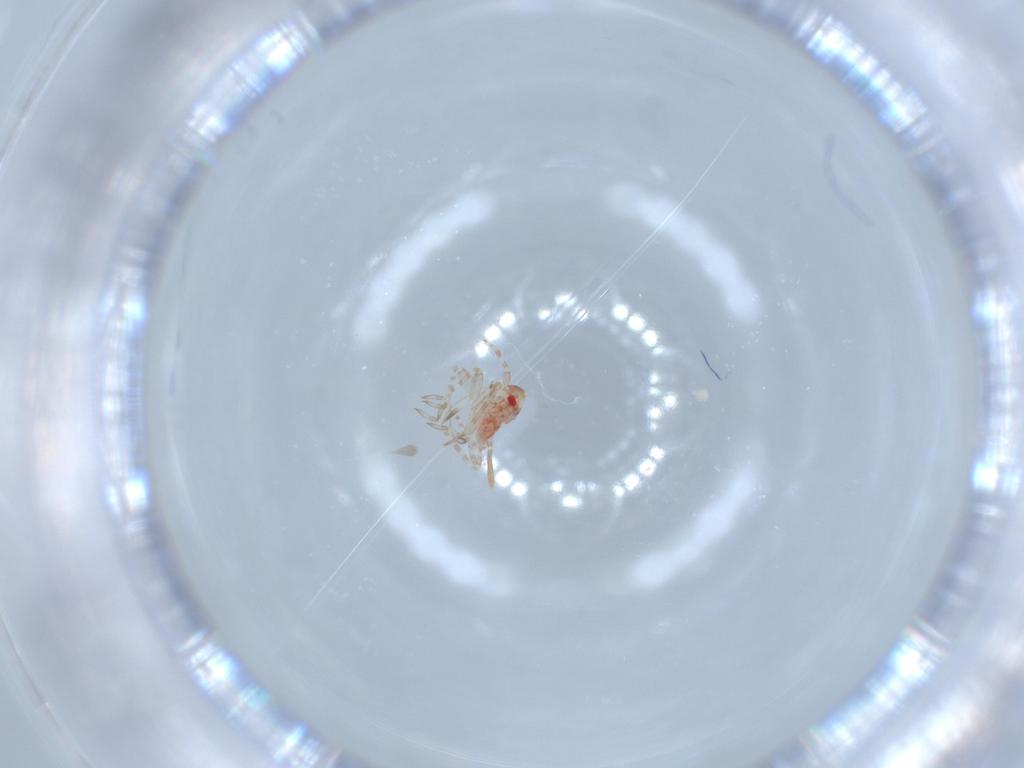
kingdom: Animalia
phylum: Arthropoda
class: Insecta
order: Hemiptera
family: Miridae
